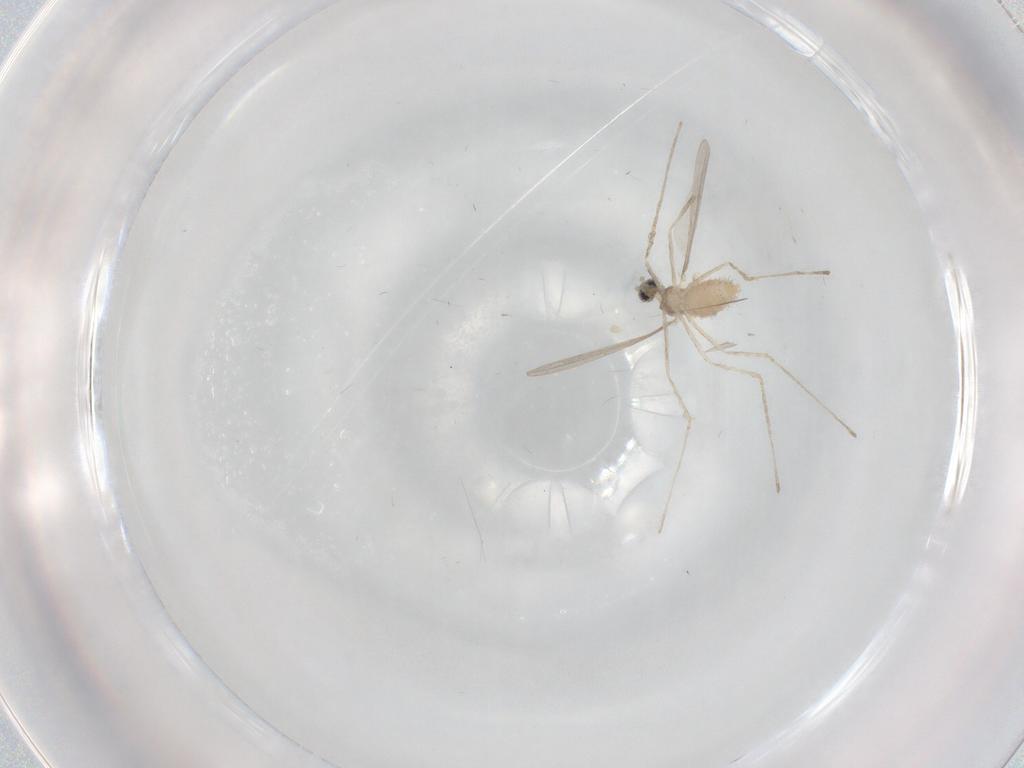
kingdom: Animalia
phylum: Arthropoda
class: Insecta
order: Diptera
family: Cecidomyiidae
